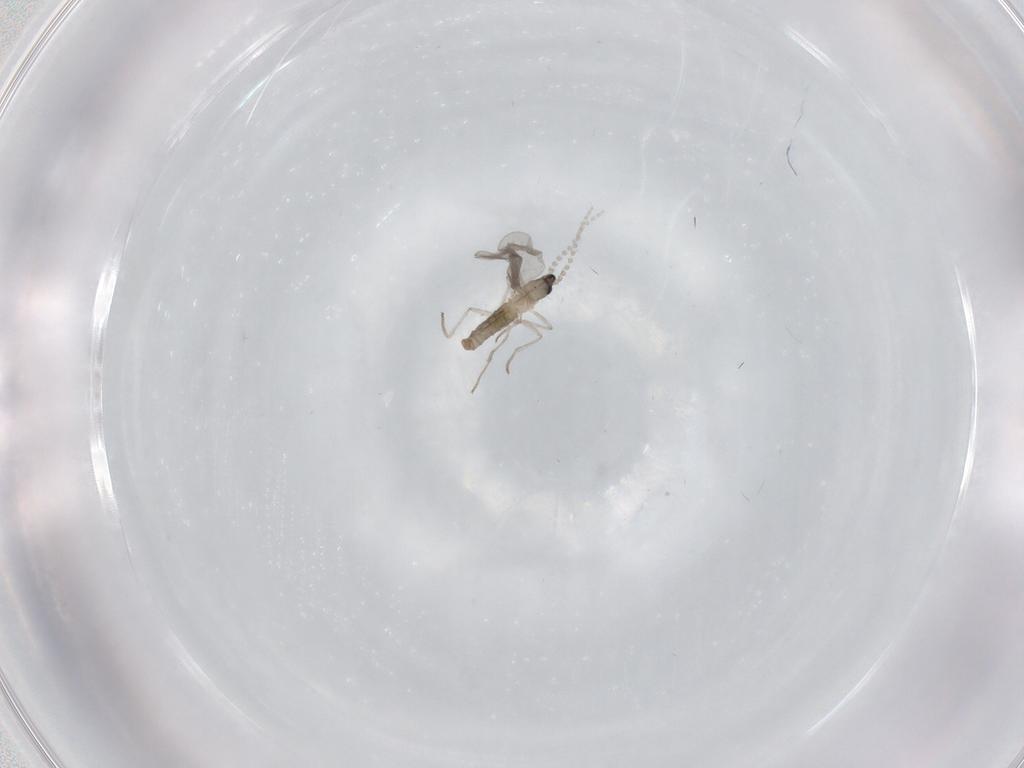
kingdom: Animalia
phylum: Arthropoda
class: Insecta
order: Diptera
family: Cecidomyiidae
